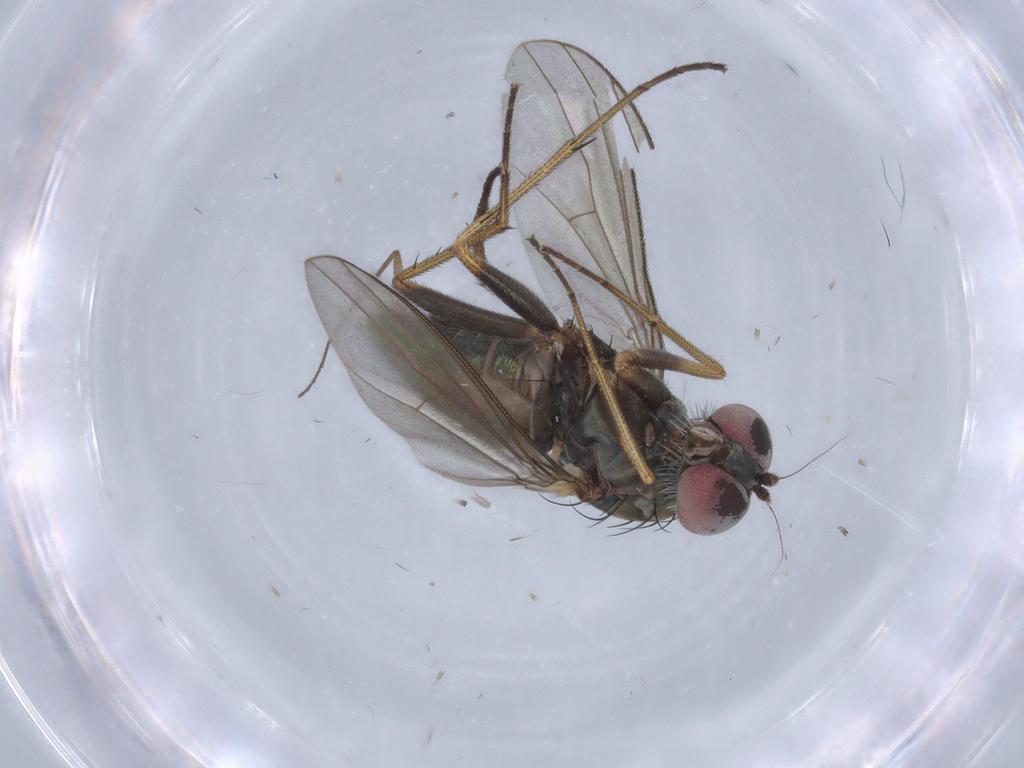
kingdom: Animalia
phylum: Arthropoda
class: Insecta
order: Diptera
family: Dolichopodidae
